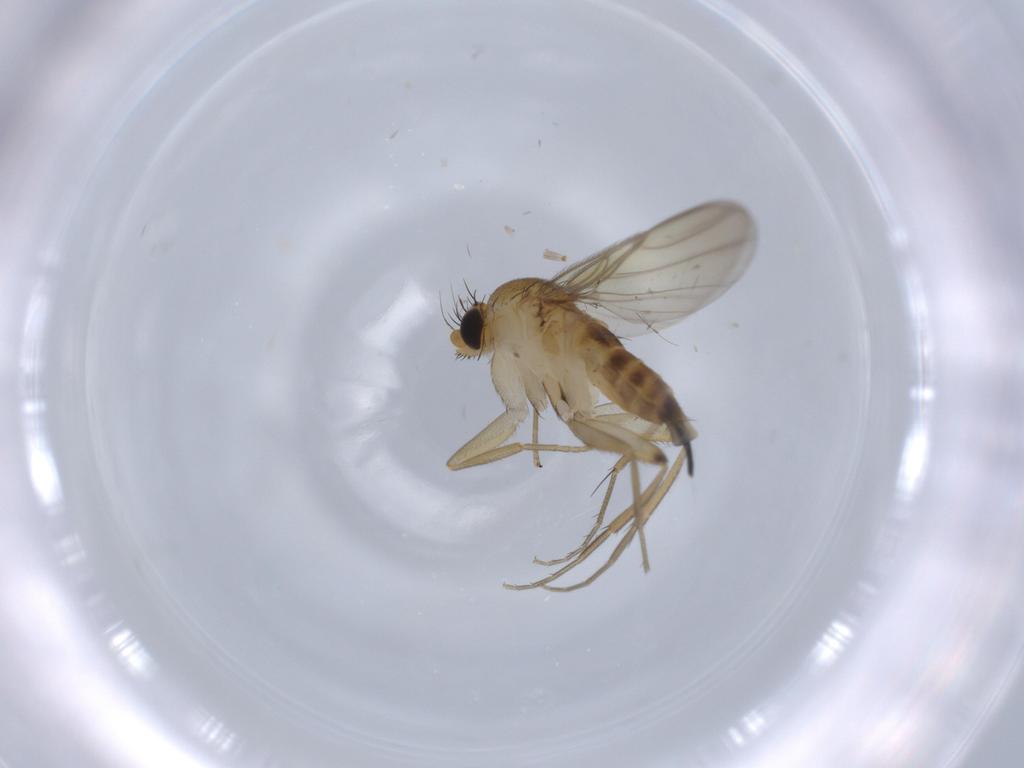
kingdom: Animalia
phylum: Arthropoda
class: Insecta
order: Diptera
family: Phoridae
